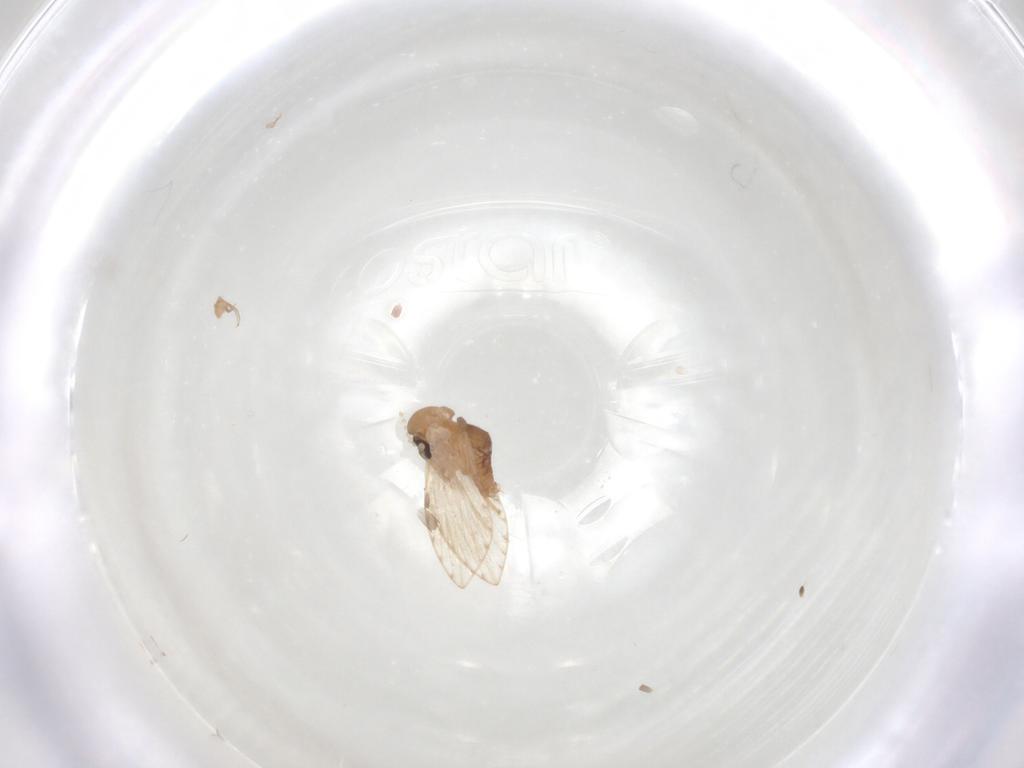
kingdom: Animalia
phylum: Arthropoda
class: Insecta
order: Diptera
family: Psychodidae
